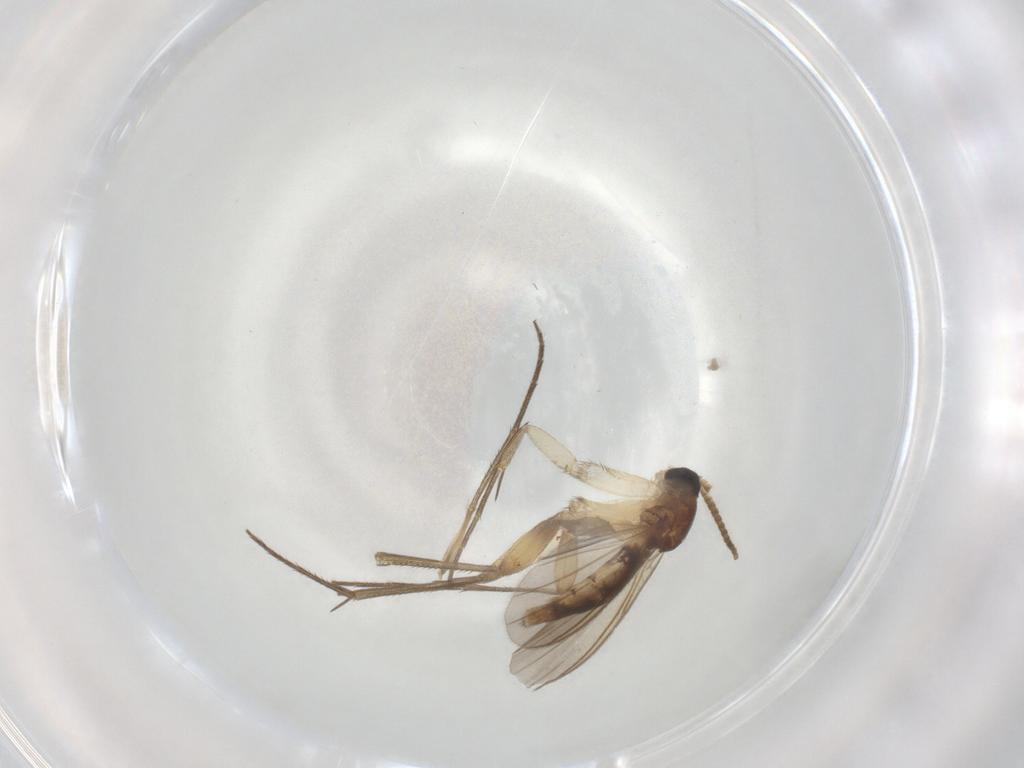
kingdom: Animalia
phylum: Arthropoda
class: Insecta
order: Diptera
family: Mycetophilidae
